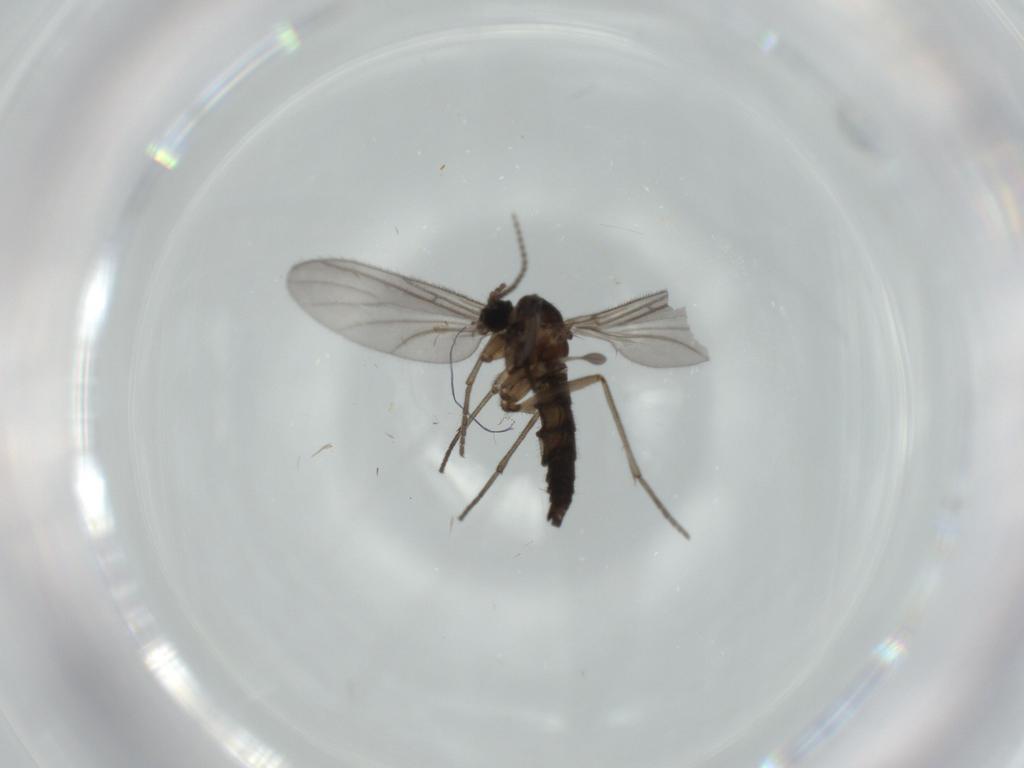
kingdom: Animalia
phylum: Arthropoda
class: Insecta
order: Diptera
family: Sciaridae
